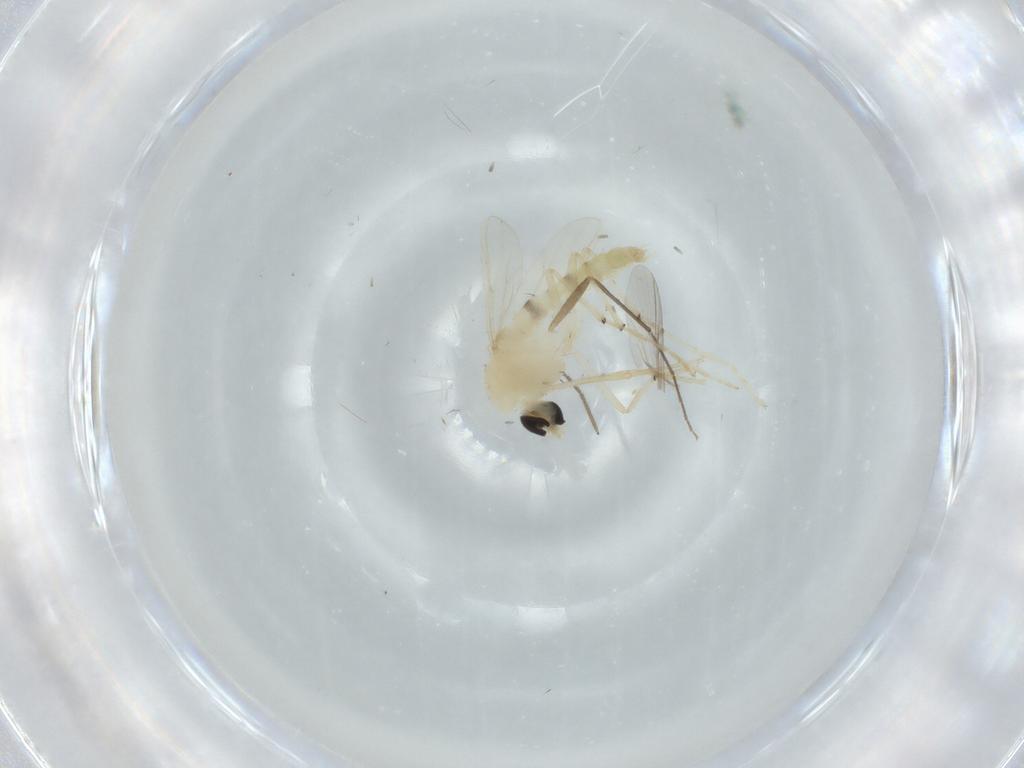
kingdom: Animalia
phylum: Arthropoda
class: Insecta
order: Diptera
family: Chironomidae
